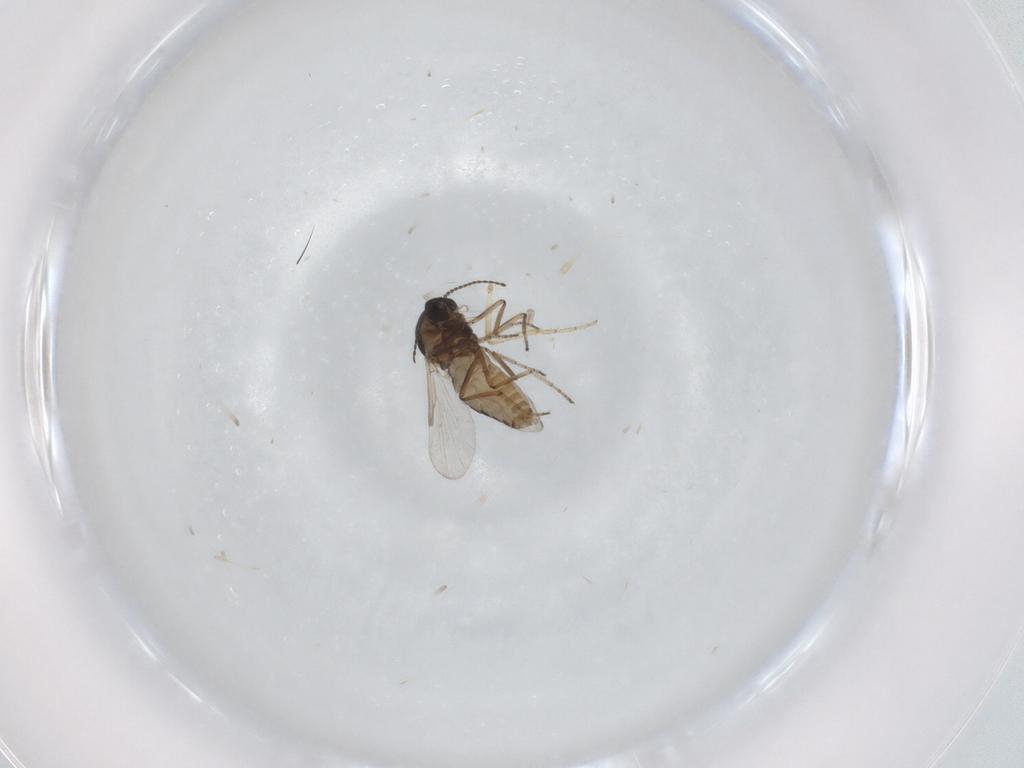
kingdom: Animalia
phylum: Arthropoda
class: Insecta
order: Diptera
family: Ceratopogonidae
